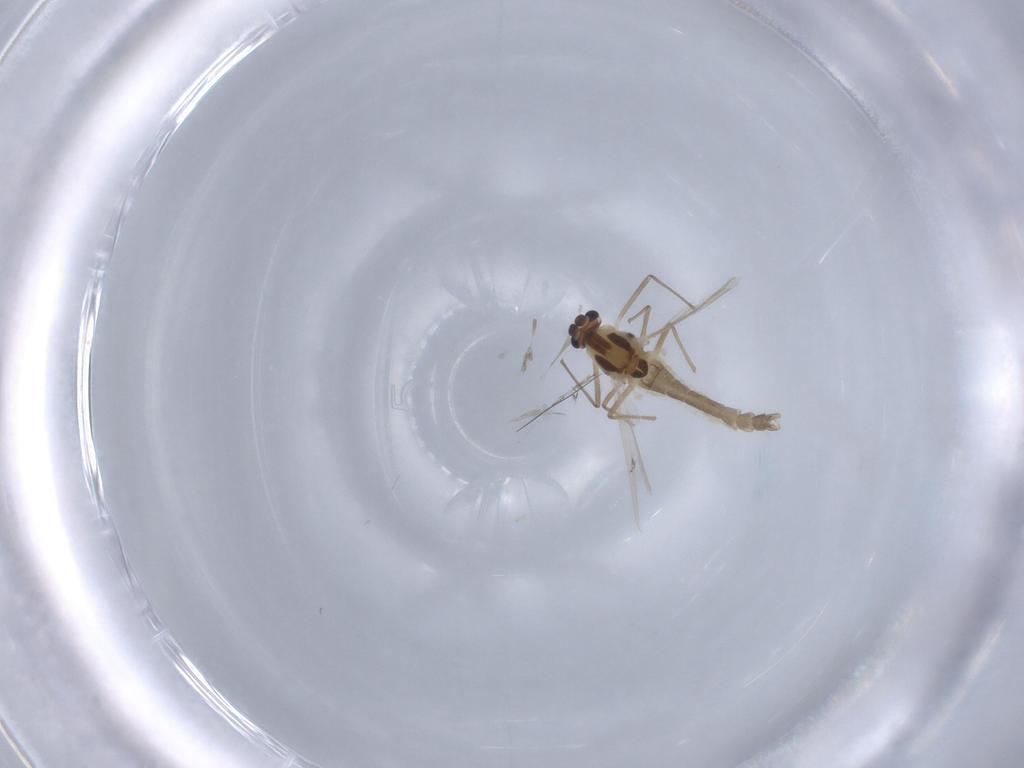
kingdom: Animalia
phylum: Arthropoda
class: Insecta
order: Diptera
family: Chironomidae
